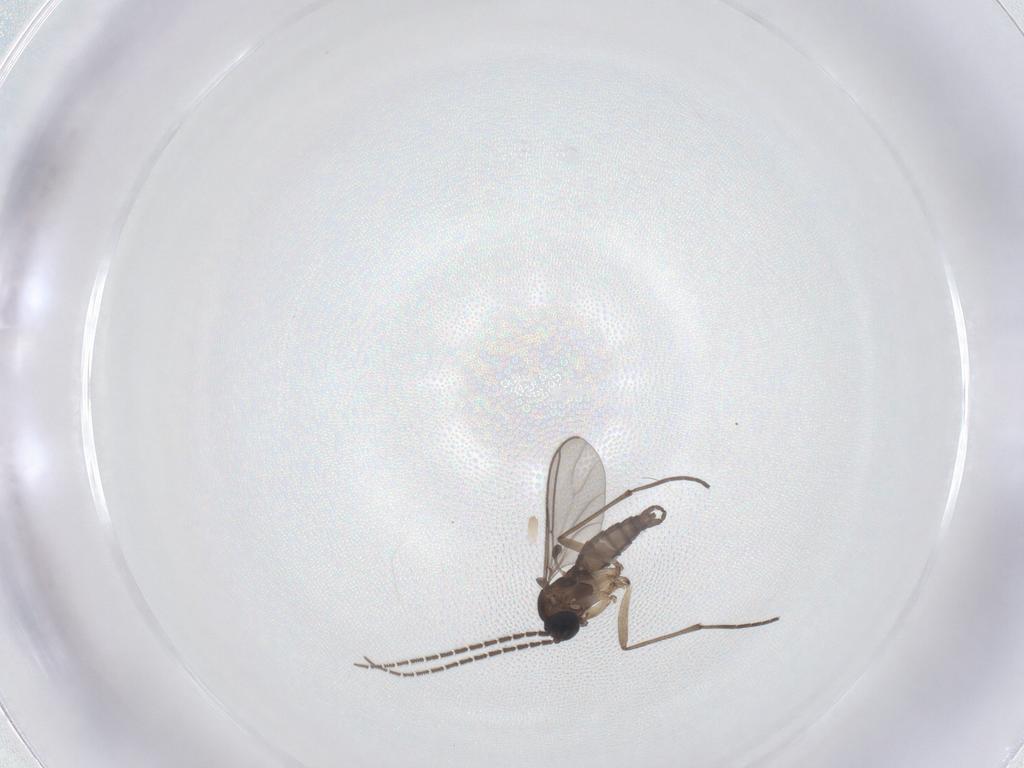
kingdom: Animalia
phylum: Arthropoda
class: Insecta
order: Diptera
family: Sciaridae
